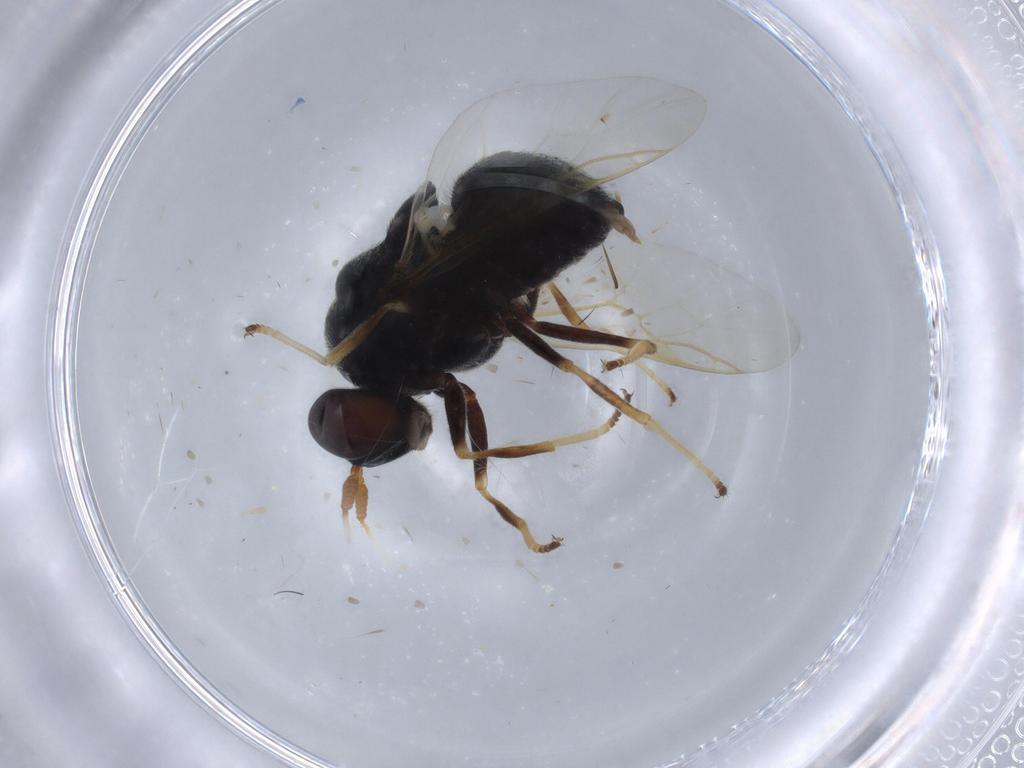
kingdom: Animalia
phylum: Arthropoda
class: Insecta
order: Diptera
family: Stratiomyidae
